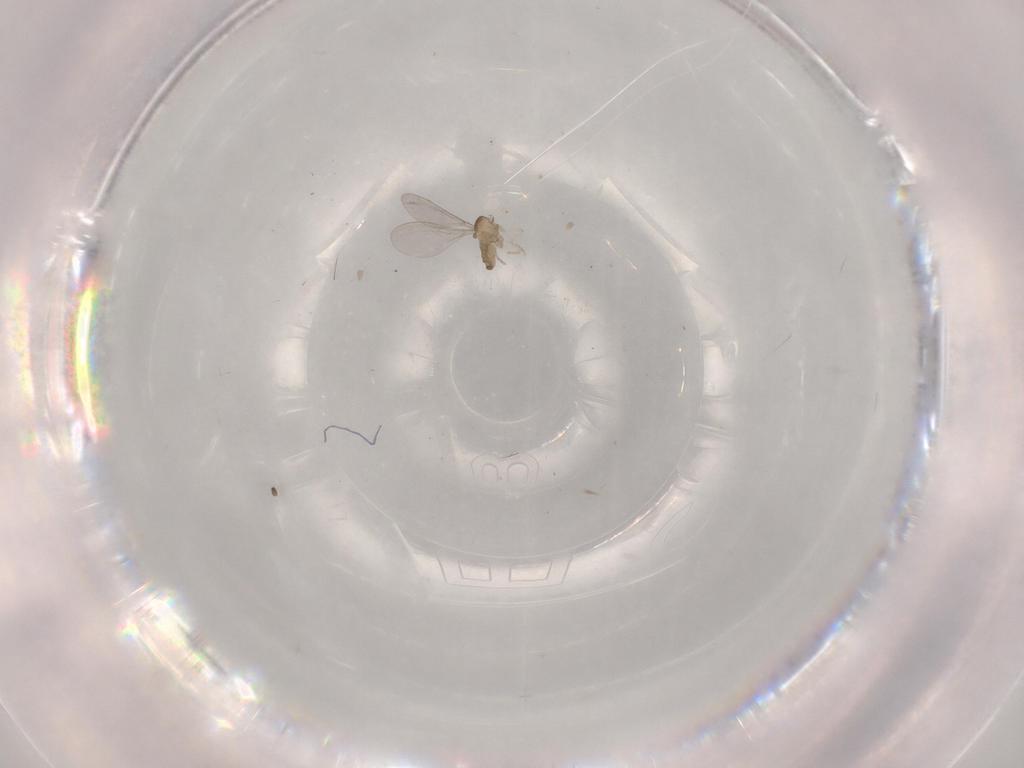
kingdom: Animalia
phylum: Arthropoda
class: Insecta
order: Diptera
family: Cecidomyiidae
